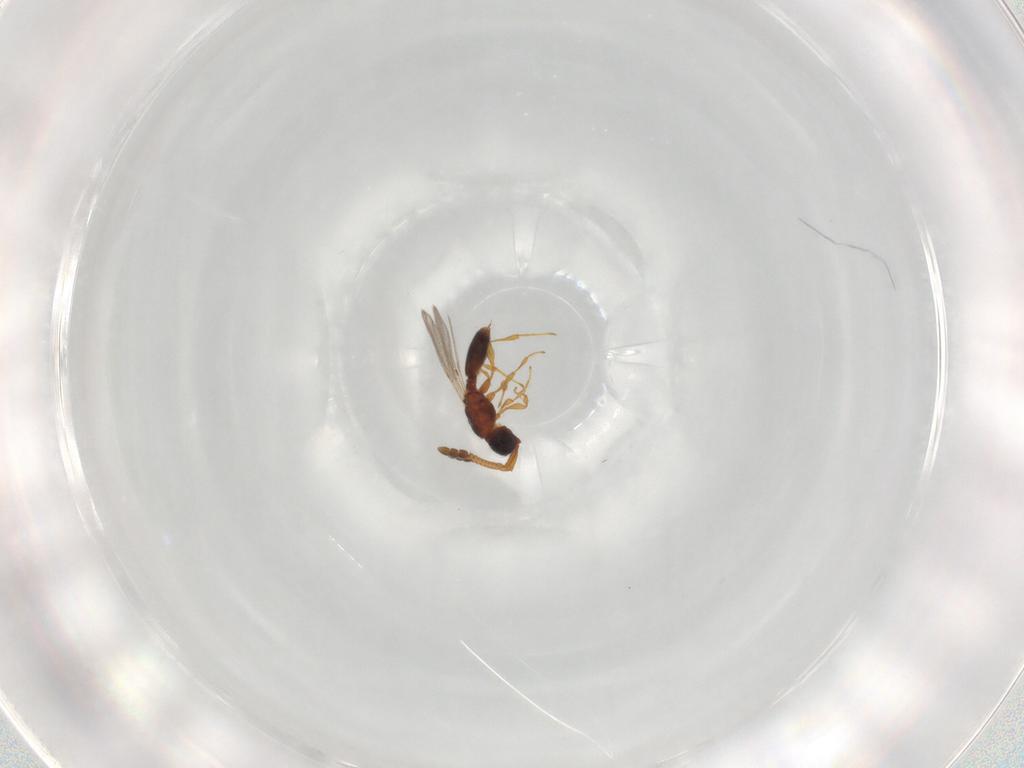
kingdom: Animalia
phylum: Arthropoda
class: Insecta
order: Hymenoptera
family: Diapriidae
